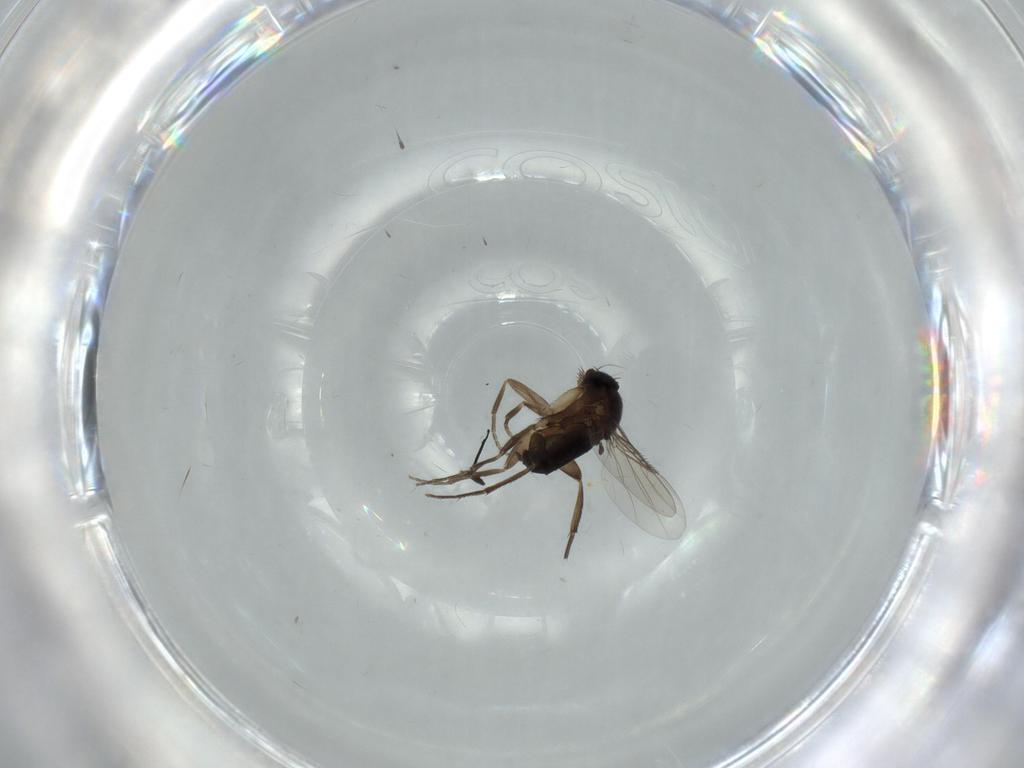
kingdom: Animalia
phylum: Arthropoda
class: Insecta
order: Diptera
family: Phoridae
